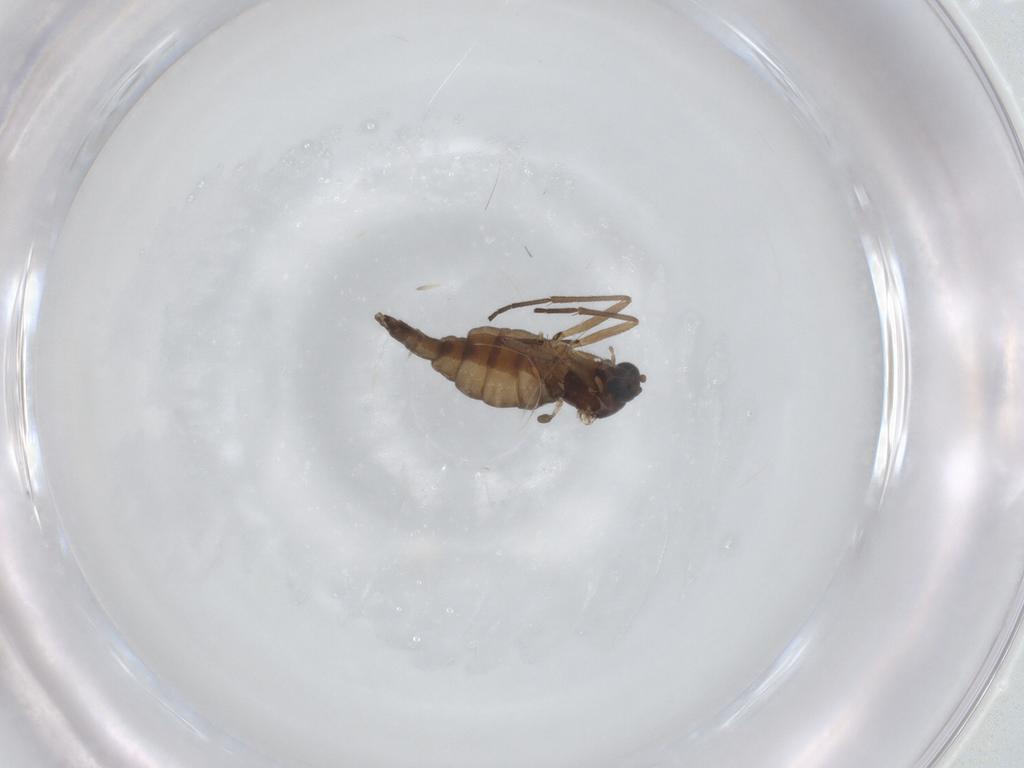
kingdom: Animalia
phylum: Arthropoda
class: Insecta
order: Diptera
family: Sciaridae
